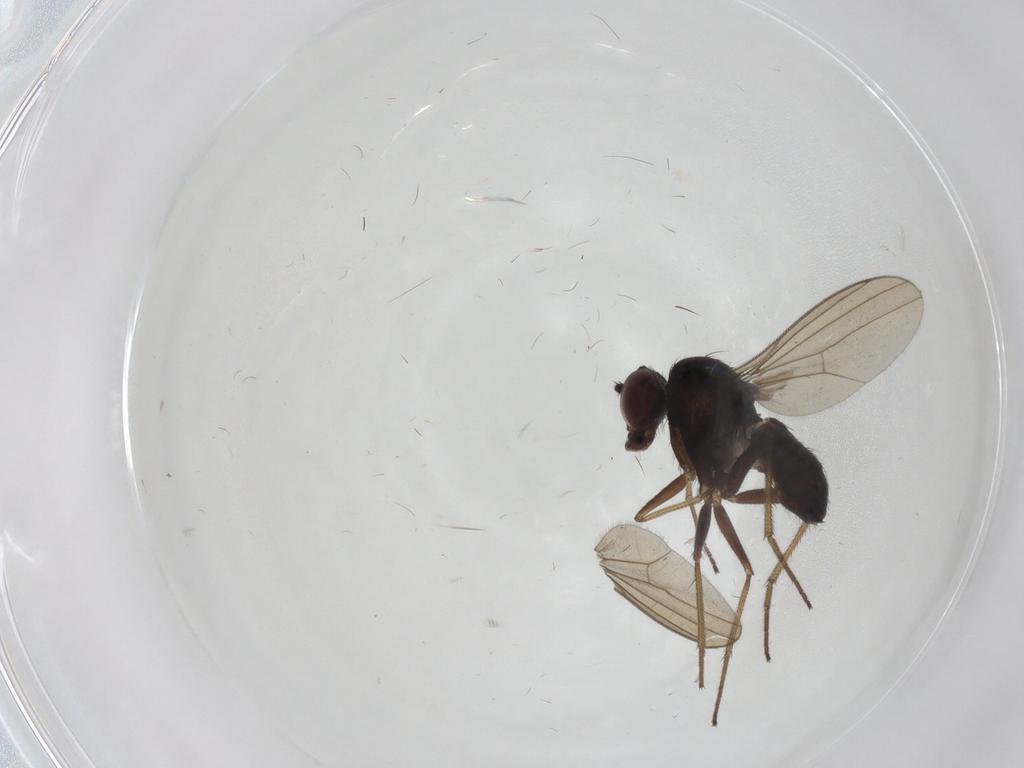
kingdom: Animalia
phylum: Arthropoda
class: Insecta
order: Diptera
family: Dolichopodidae
